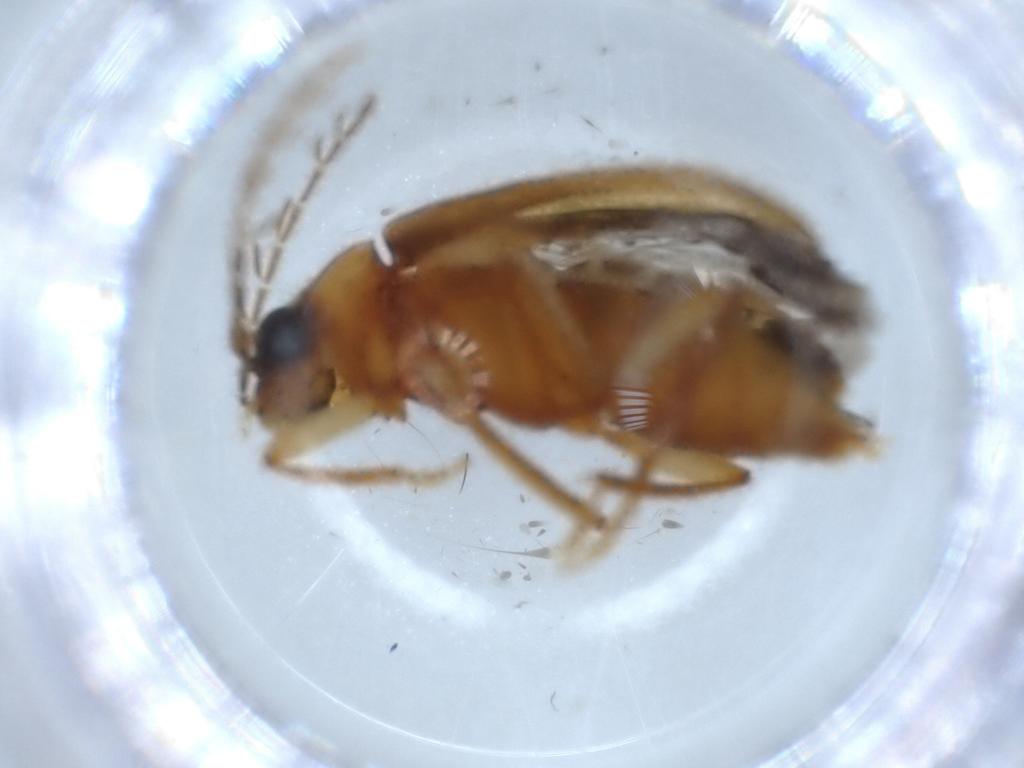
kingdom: Animalia
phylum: Arthropoda
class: Insecta
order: Coleoptera
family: Ptilodactylidae
